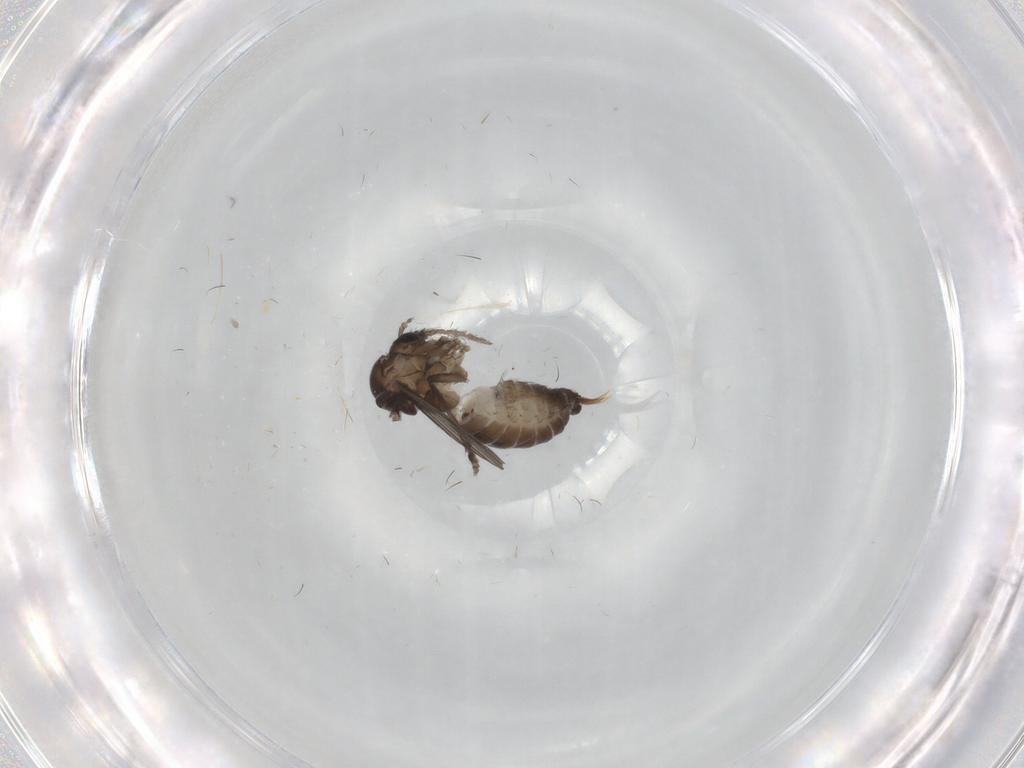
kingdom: Animalia
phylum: Arthropoda
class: Insecta
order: Diptera
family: Psychodidae
